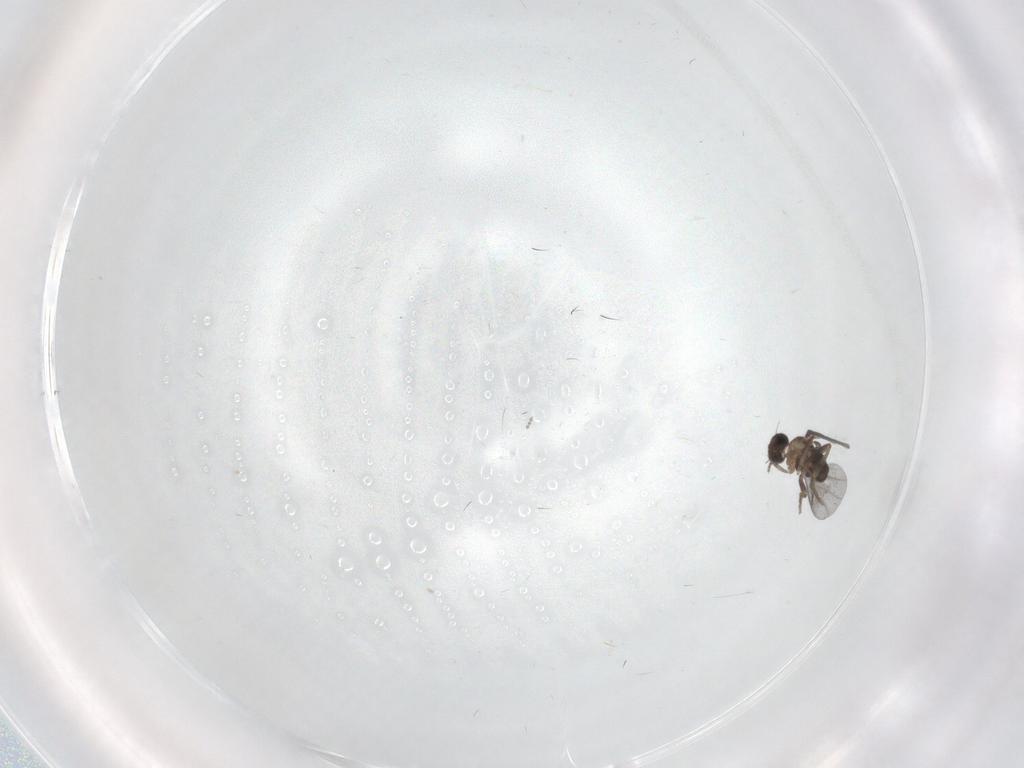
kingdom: Animalia
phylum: Arthropoda
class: Insecta
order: Diptera
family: Cecidomyiidae
